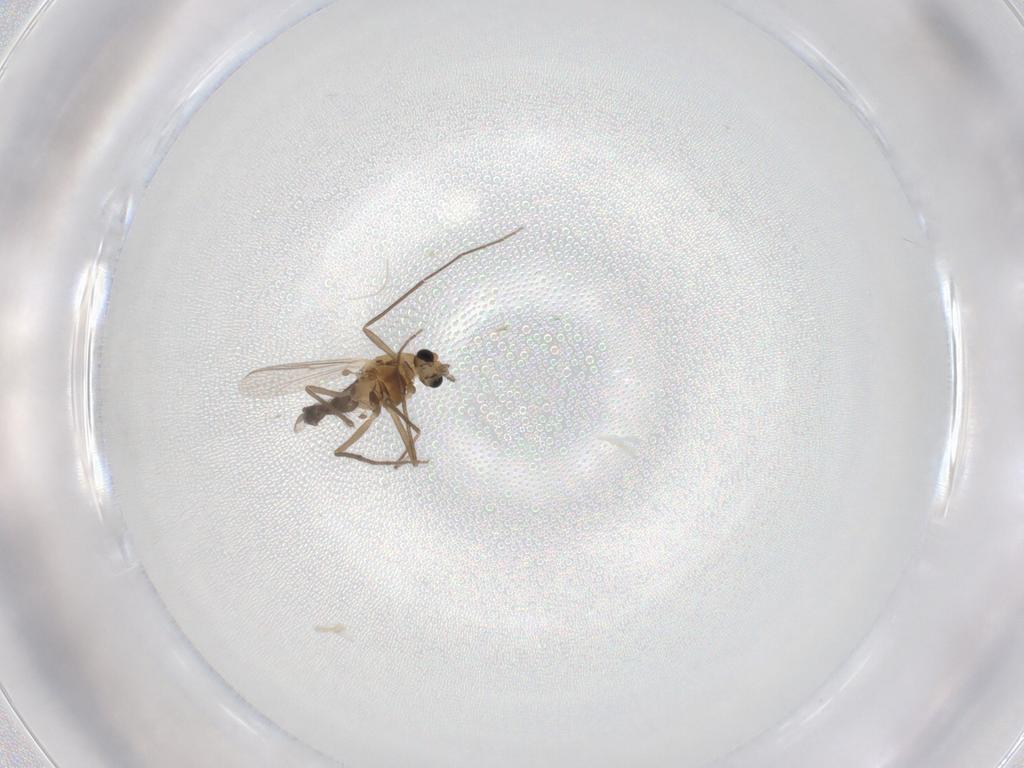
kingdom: Animalia
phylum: Arthropoda
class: Insecta
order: Diptera
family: Chironomidae
